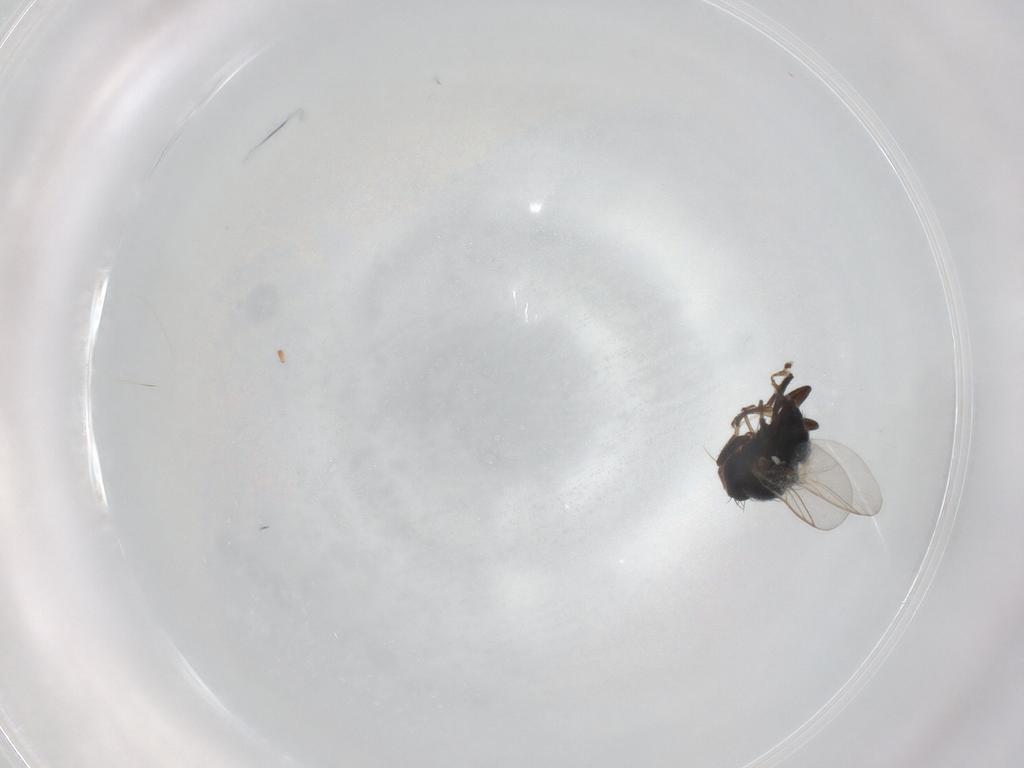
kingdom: Animalia
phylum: Arthropoda
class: Insecta
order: Diptera
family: Agromyzidae
